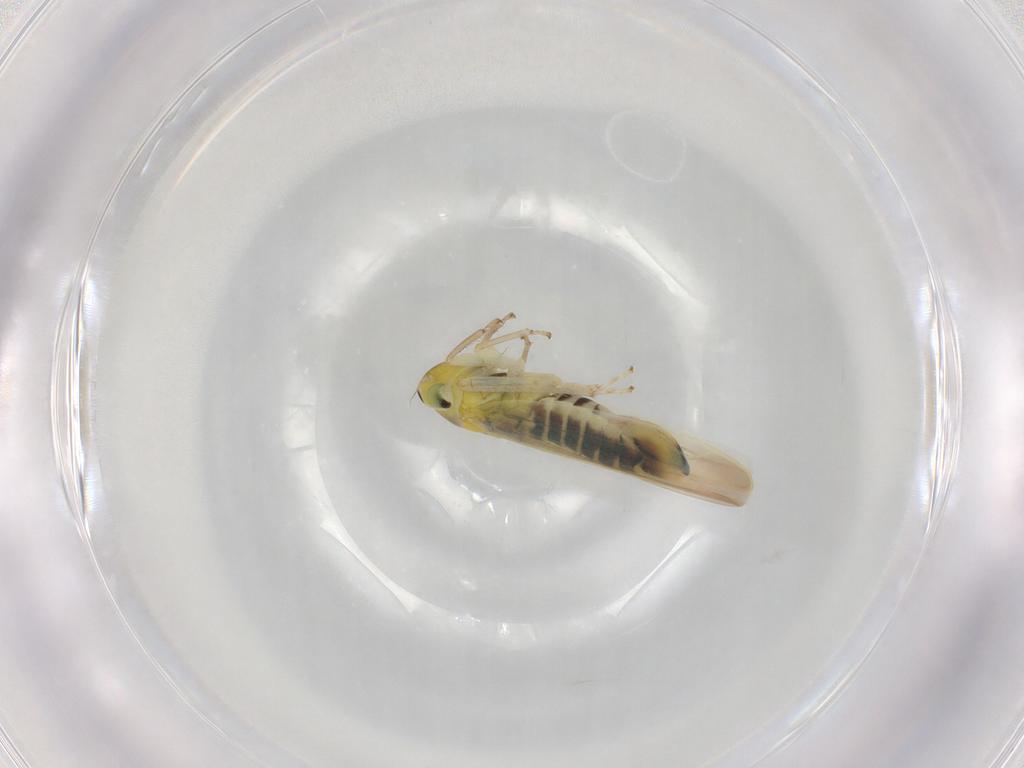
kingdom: Animalia
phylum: Arthropoda
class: Insecta
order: Hemiptera
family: Cicadellidae
